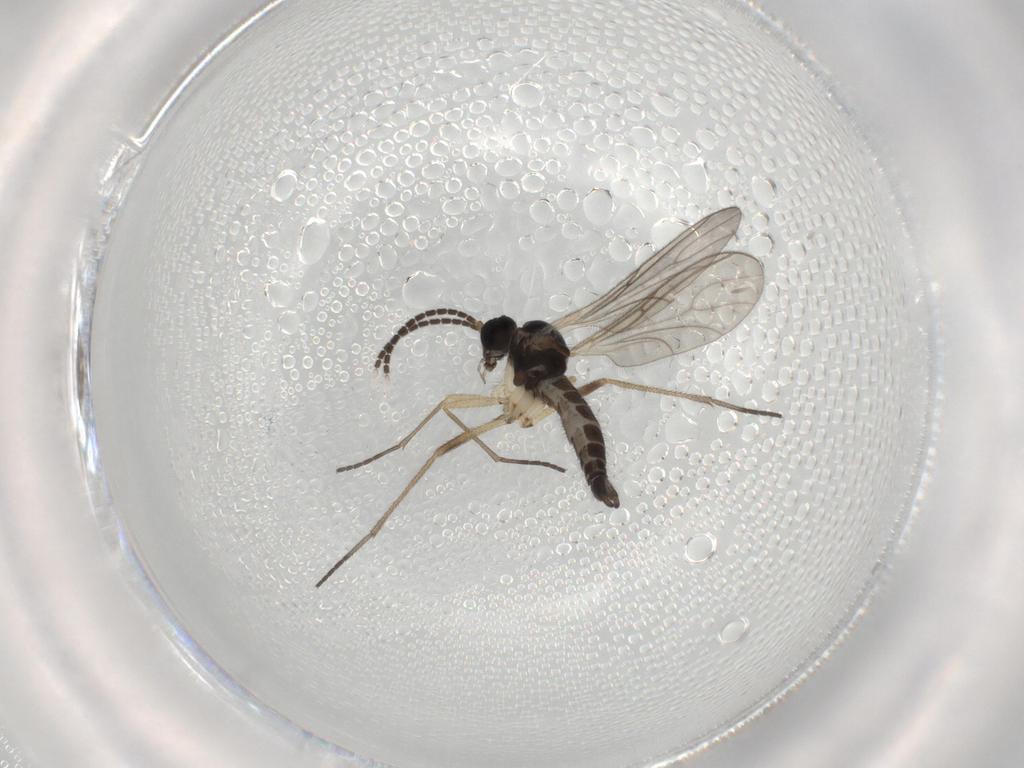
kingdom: Animalia
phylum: Arthropoda
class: Insecta
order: Diptera
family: Sciaridae
